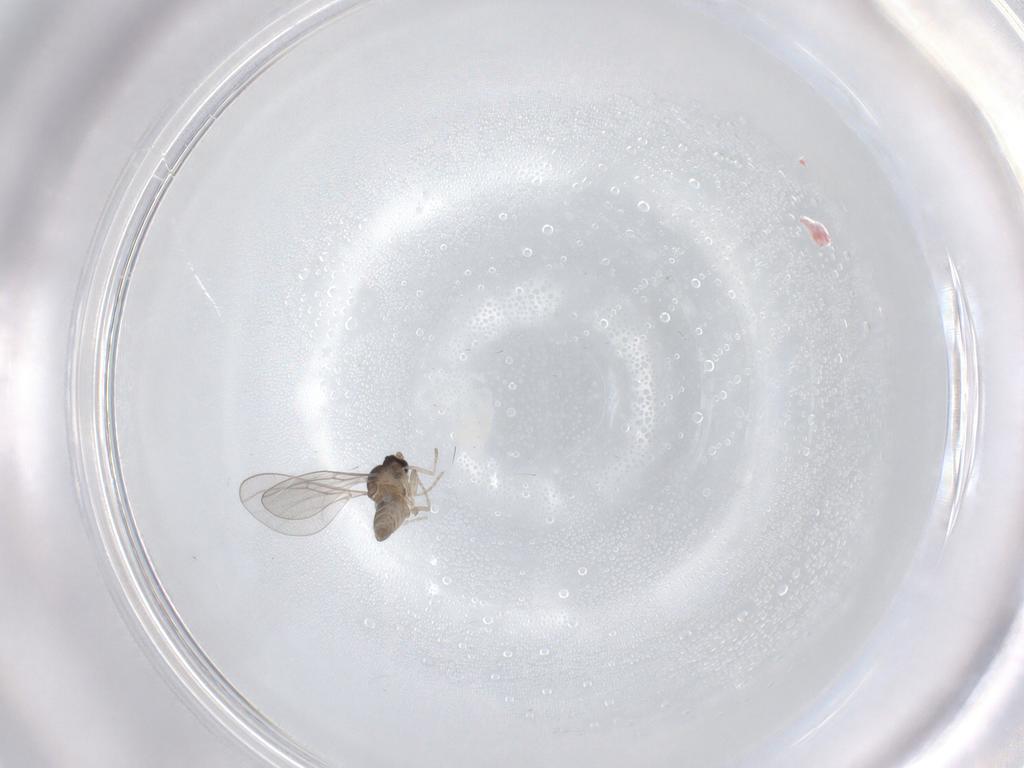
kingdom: Animalia
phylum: Arthropoda
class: Insecta
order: Diptera
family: Cecidomyiidae
